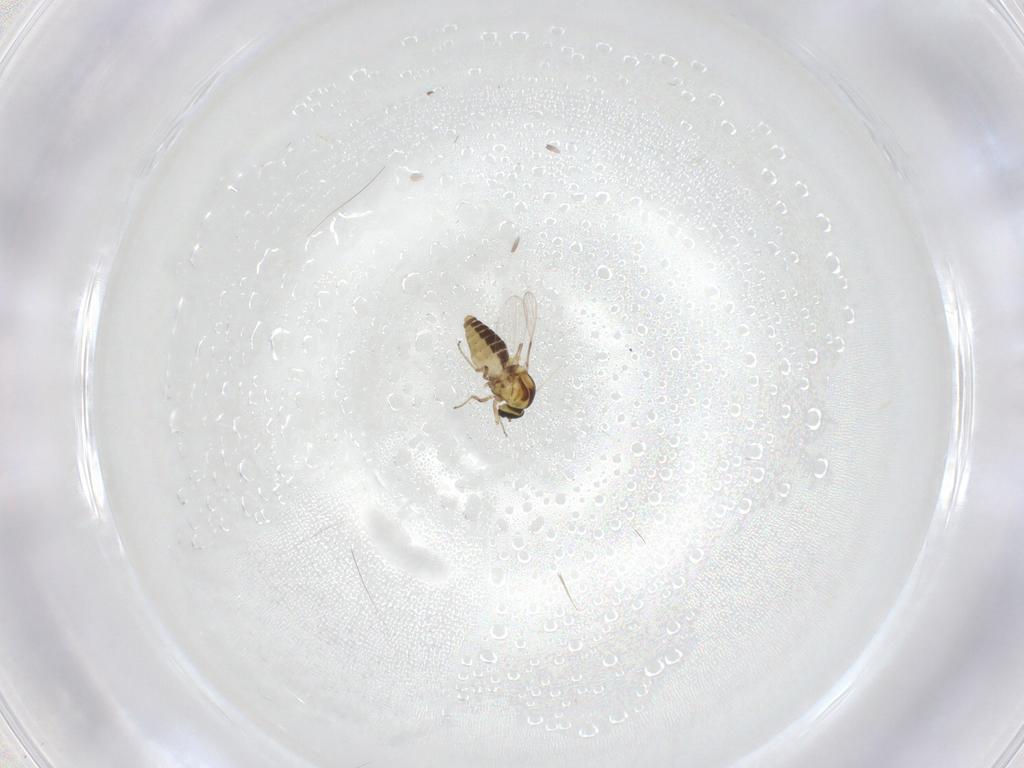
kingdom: Animalia
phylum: Arthropoda
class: Insecta
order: Diptera
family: Ceratopogonidae
